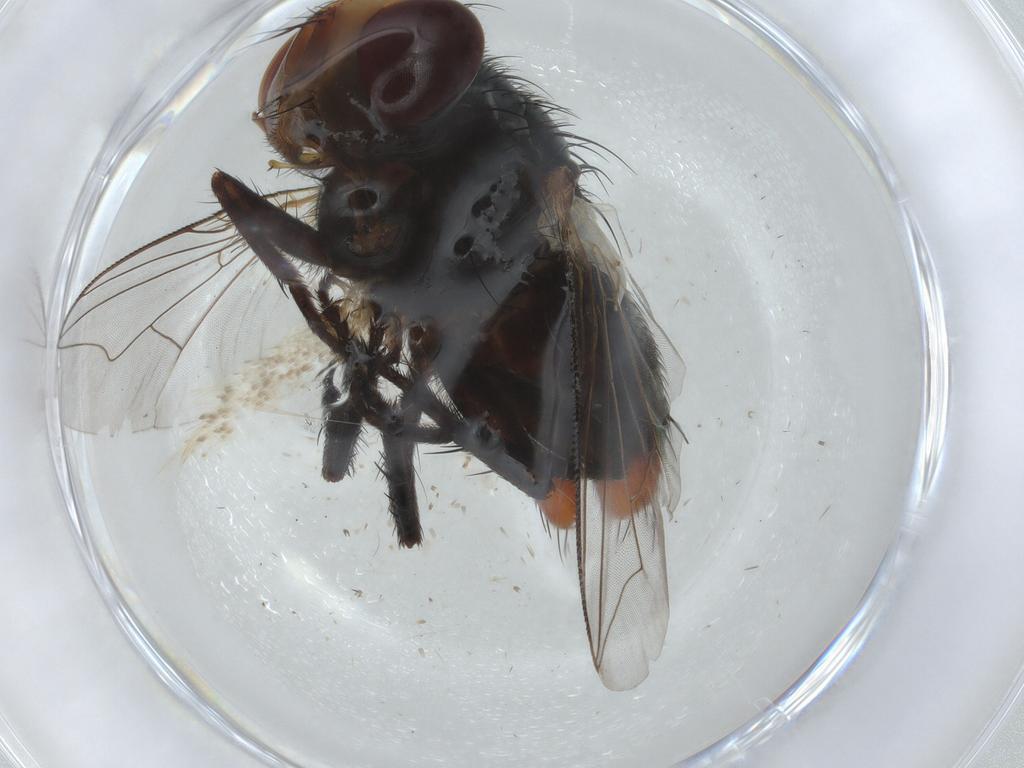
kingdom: Animalia
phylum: Arthropoda
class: Insecta
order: Diptera
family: Sarcophagidae
